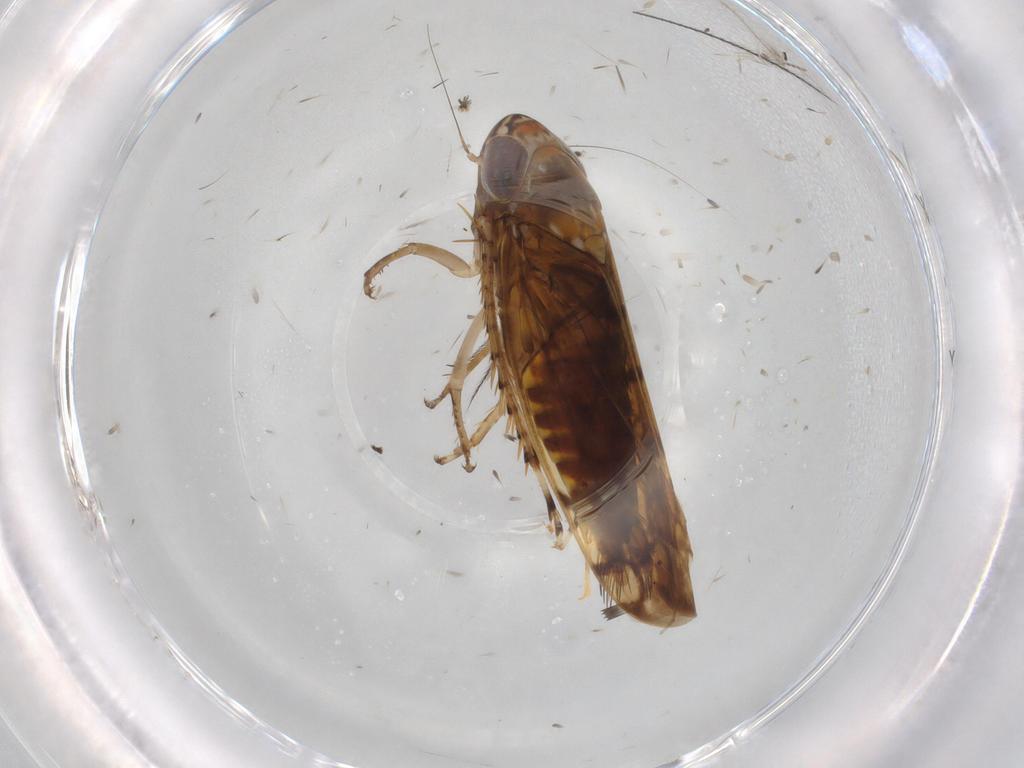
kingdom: Animalia
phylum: Arthropoda
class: Insecta
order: Hemiptera
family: Cicadellidae
